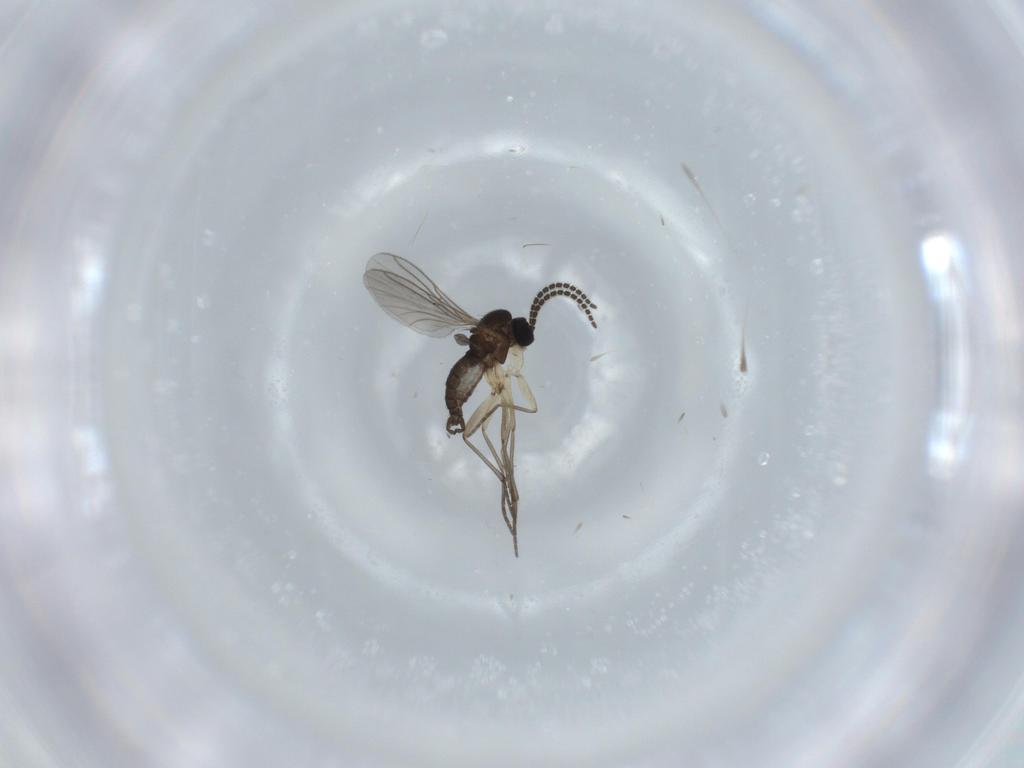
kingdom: Animalia
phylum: Arthropoda
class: Insecta
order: Diptera
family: Sciaridae
